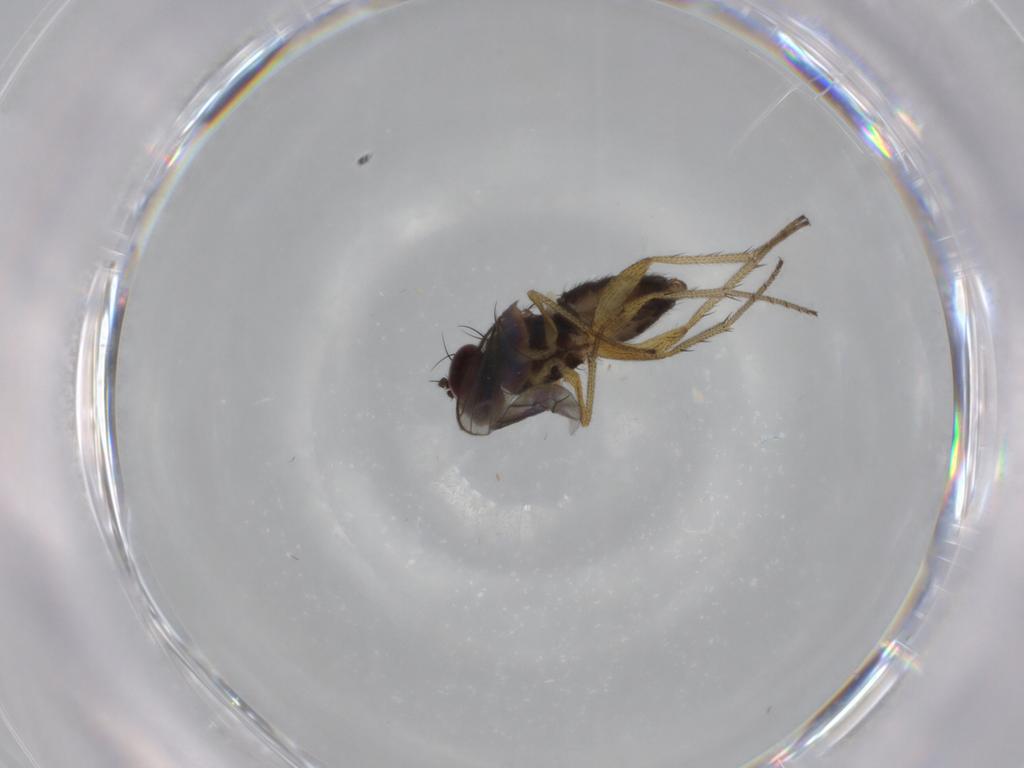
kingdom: Animalia
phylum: Arthropoda
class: Insecta
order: Diptera
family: Dolichopodidae
